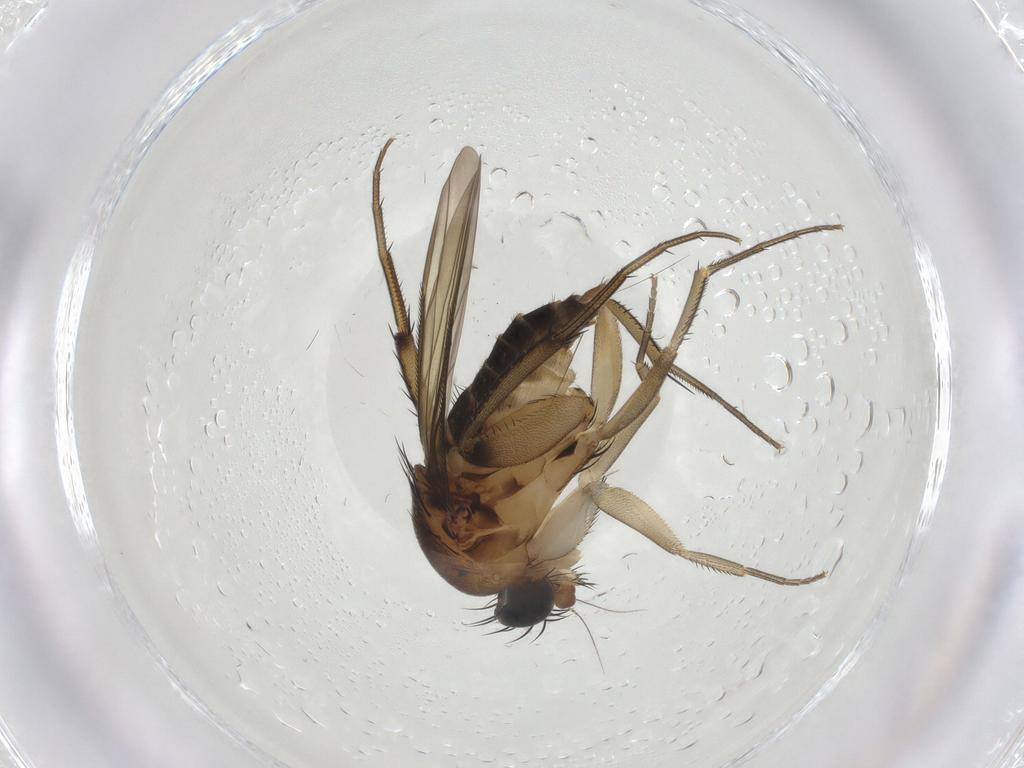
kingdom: Animalia
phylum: Arthropoda
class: Insecta
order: Diptera
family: Phoridae
